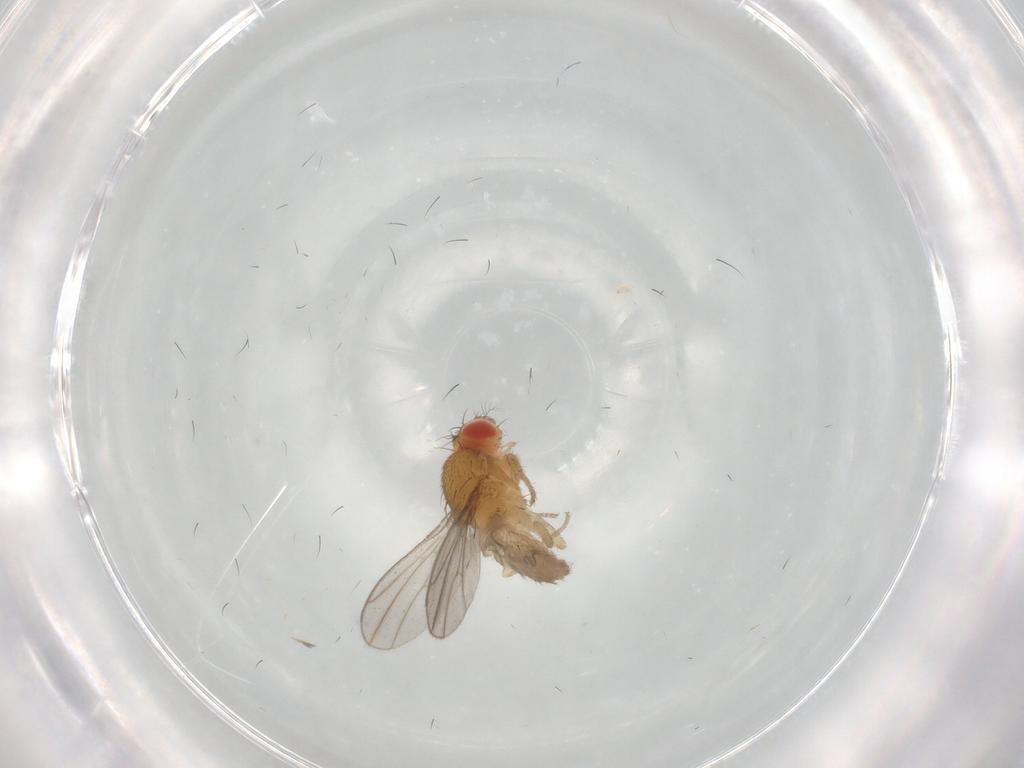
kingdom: Animalia
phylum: Arthropoda
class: Insecta
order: Diptera
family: Drosophilidae
